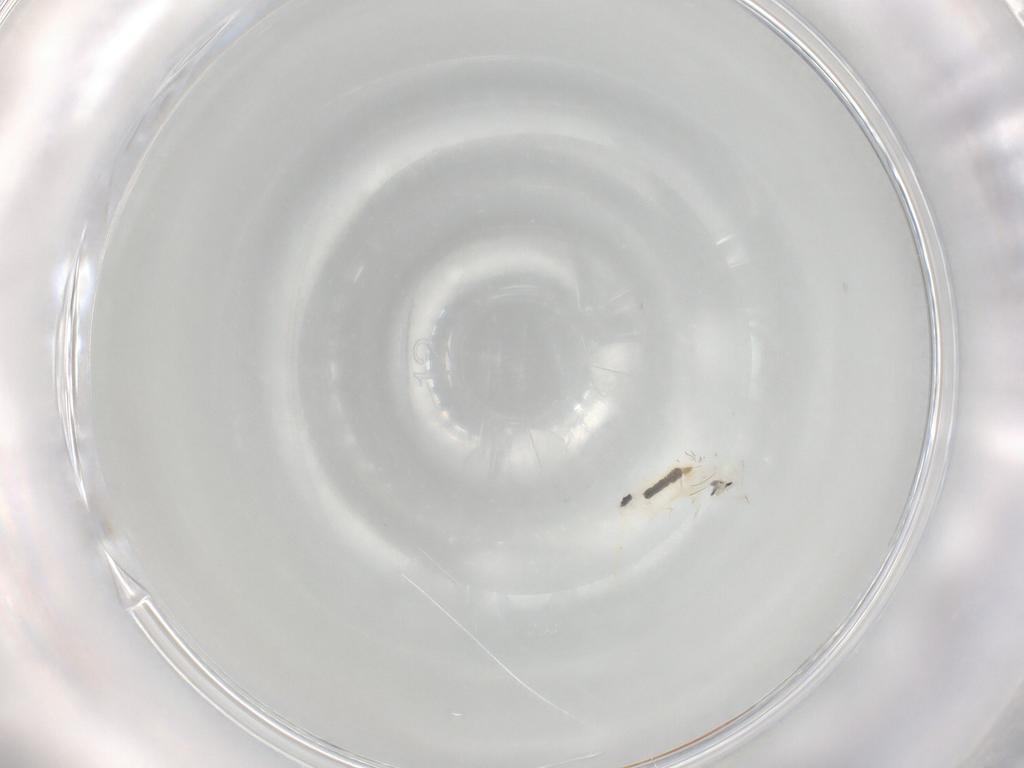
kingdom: Animalia
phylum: Arthropoda
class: Collembola
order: Entomobryomorpha
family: Entomobryidae
